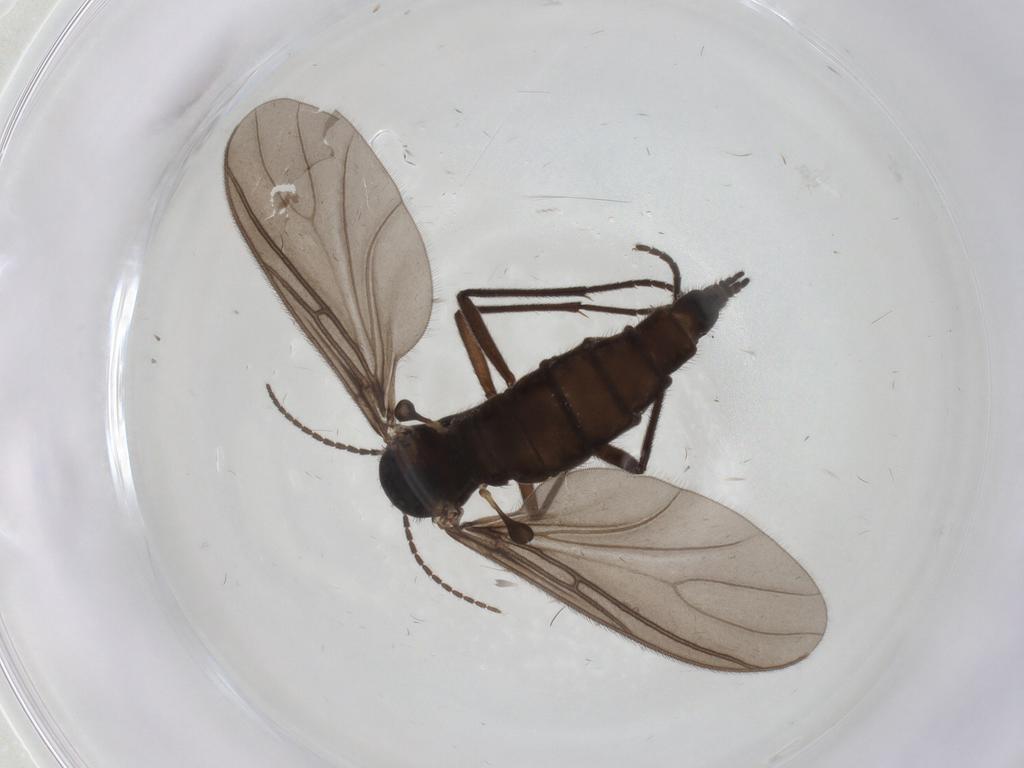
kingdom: Animalia
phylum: Arthropoda
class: Insecta
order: Diptera
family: Sciaridae
